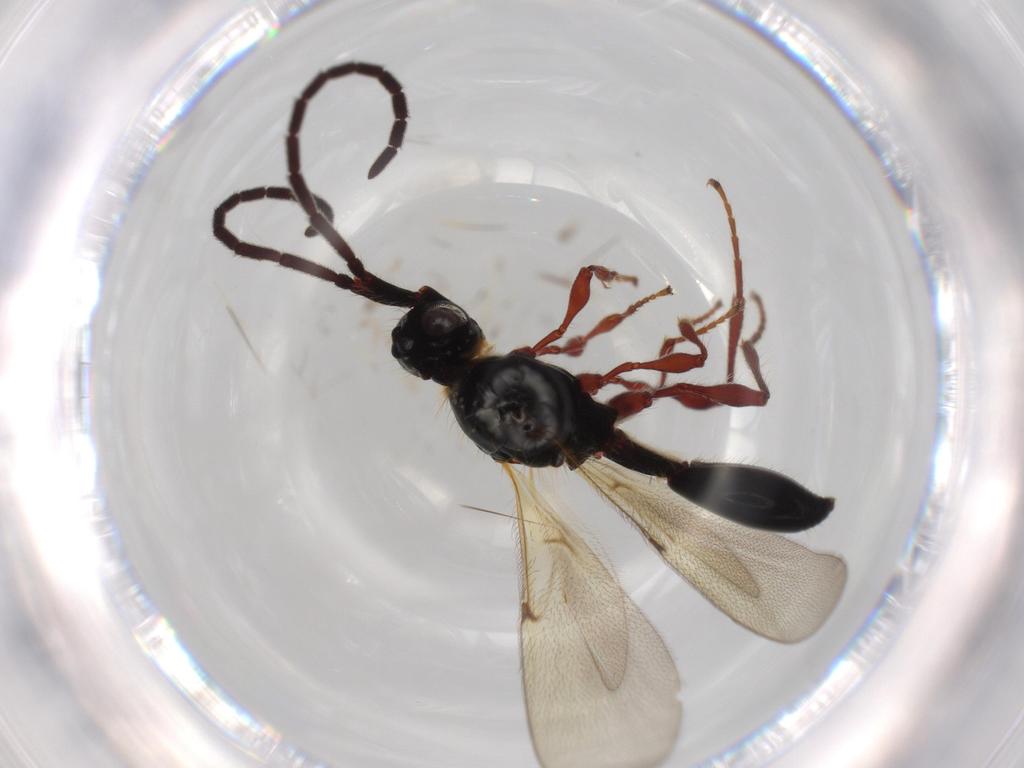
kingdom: Animalia
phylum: Arthropoda
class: Insecta
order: Hymenoptera
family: Diapriidae
